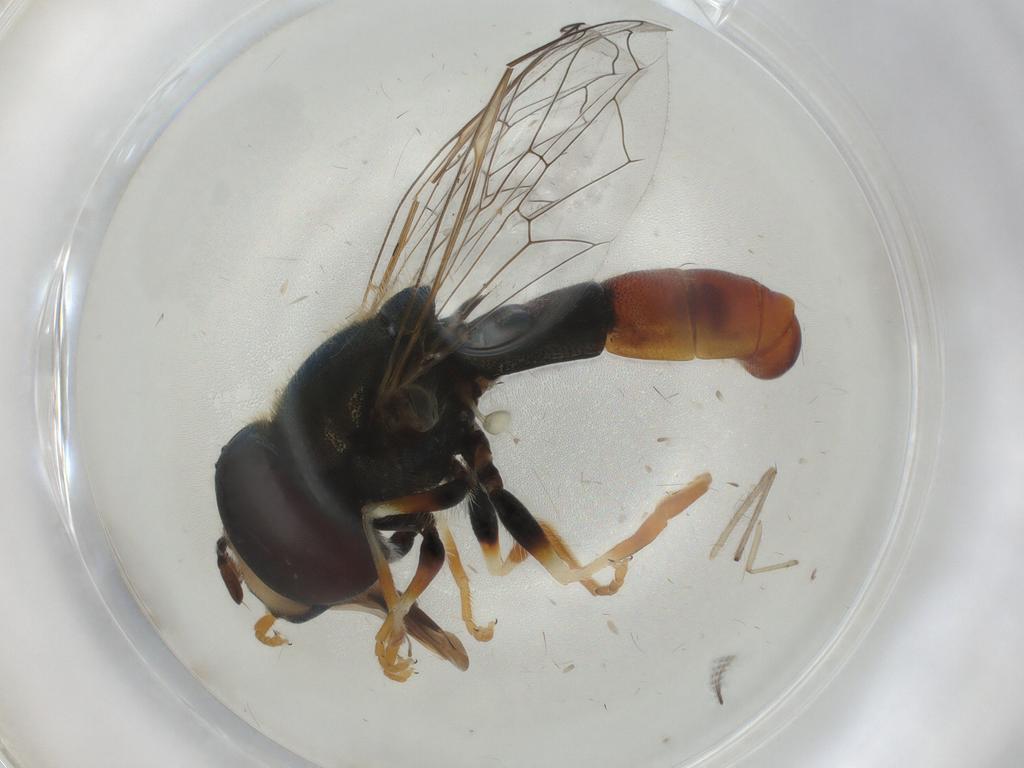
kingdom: Animalia
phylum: Arthropoda
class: Insecta
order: Diptera
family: Syrphidae
